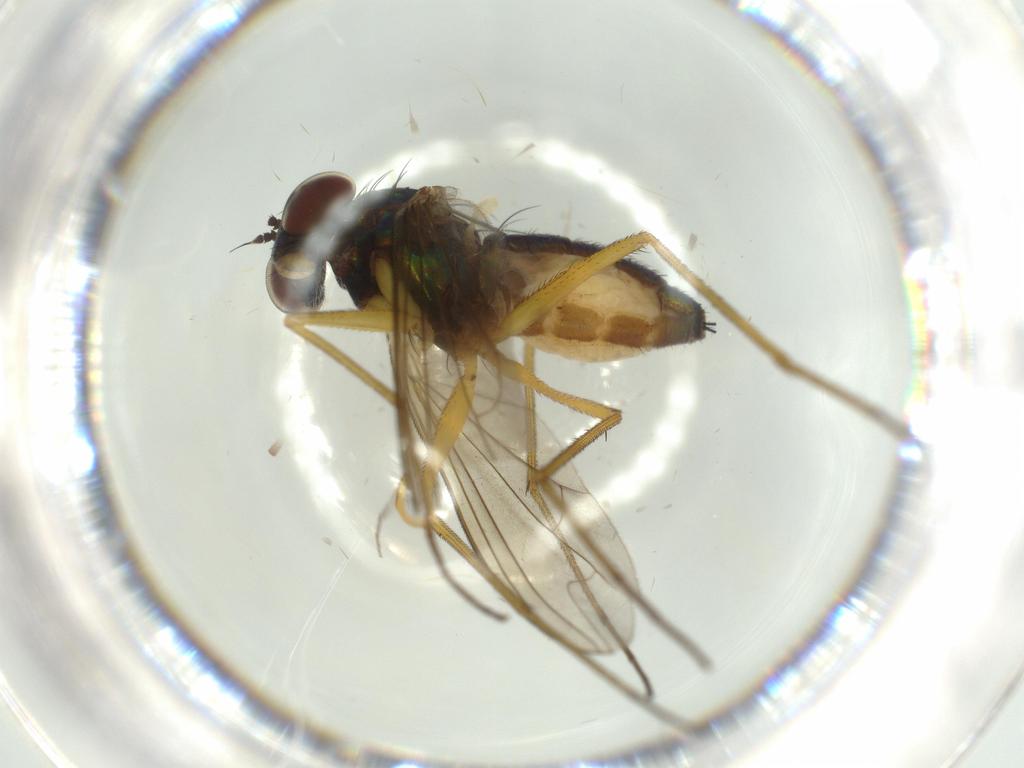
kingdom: Animalia
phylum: Arthropoda
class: Insecta
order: Diptera
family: Dolichopodidae
